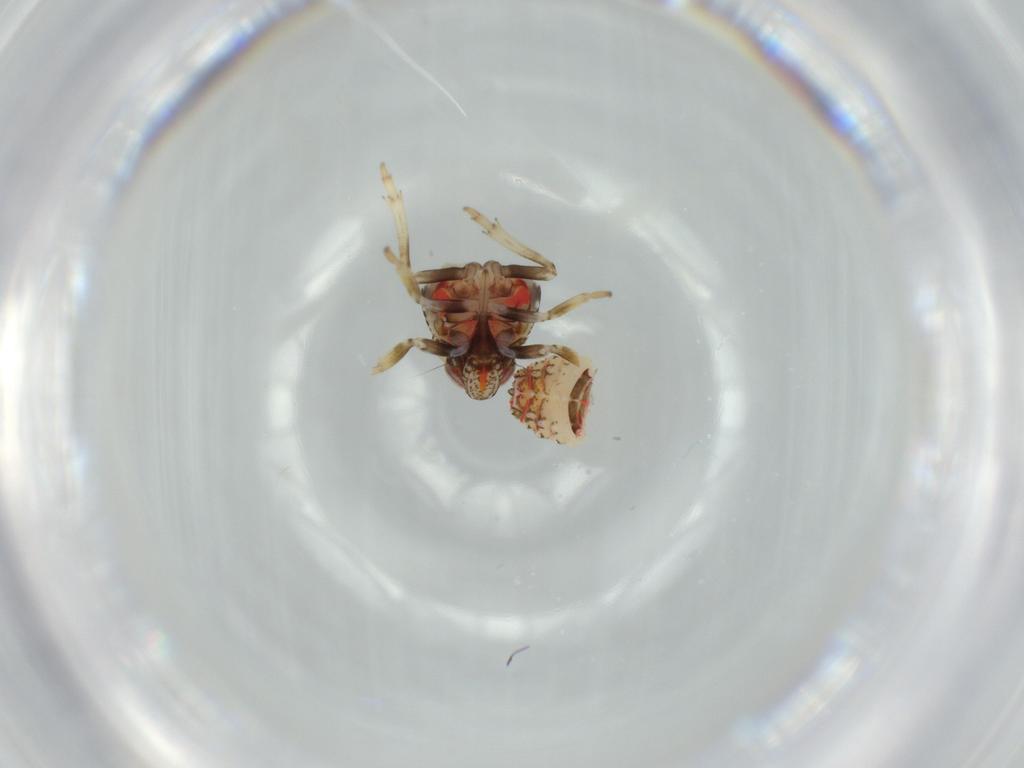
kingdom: Animalia
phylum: Arthropoda
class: Insecta
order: Hemiptera
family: Issidae
